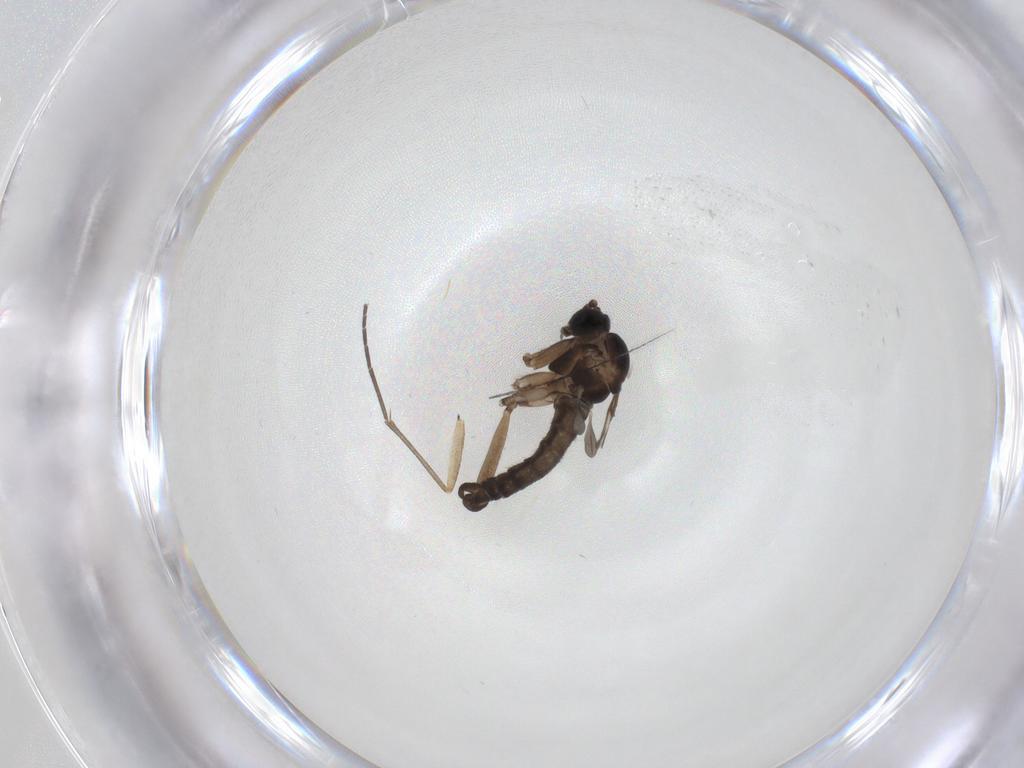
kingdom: Animalia
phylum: Arthropoda
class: Insecta
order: Diptera
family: Sciaridae
